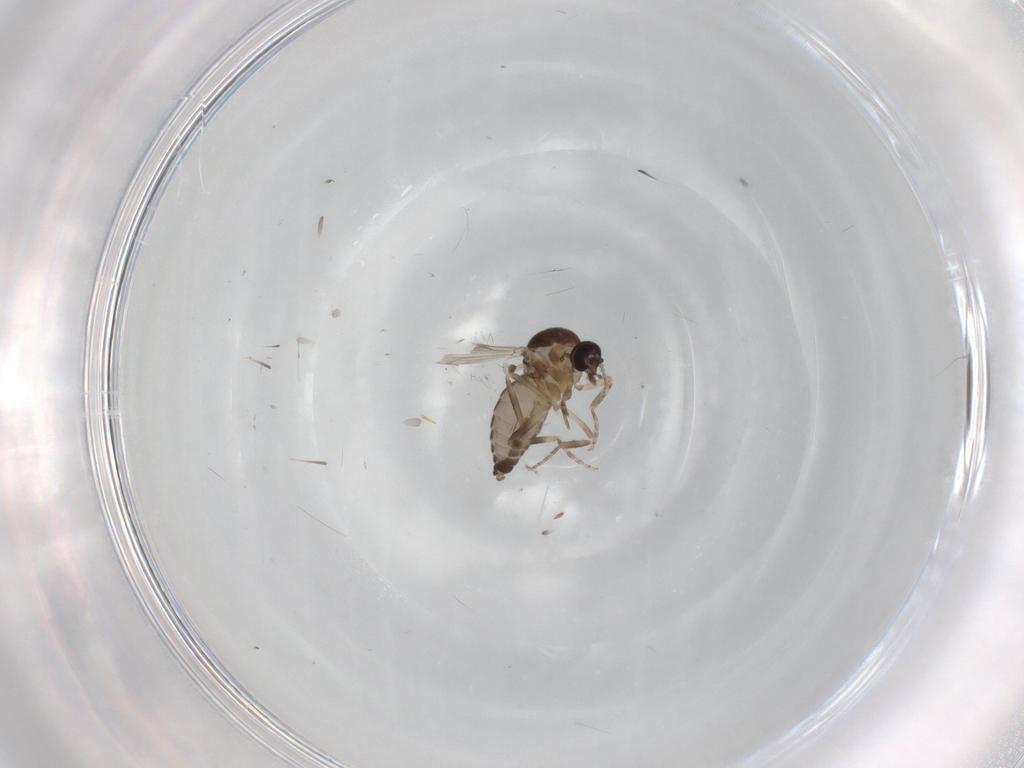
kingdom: Animalia
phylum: Arthropoda
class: Insecta
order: Diptera
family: Ceratopogonidae
